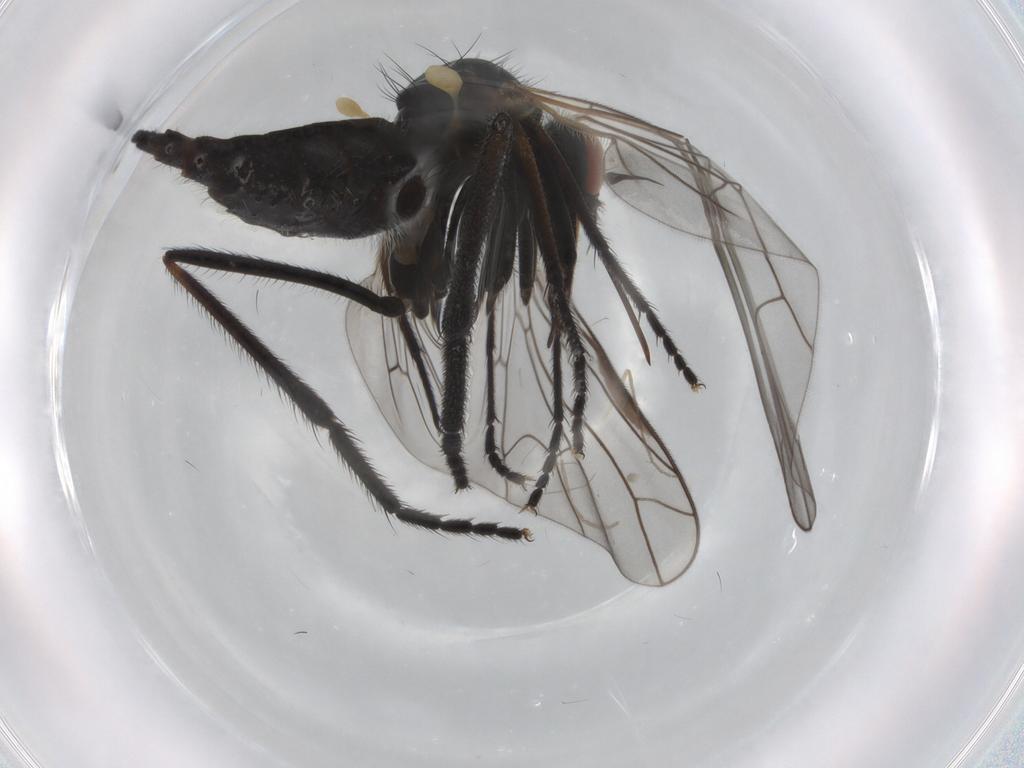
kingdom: Animalia
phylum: Arthropoda
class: Insecta
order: Diptera
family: Empididae
